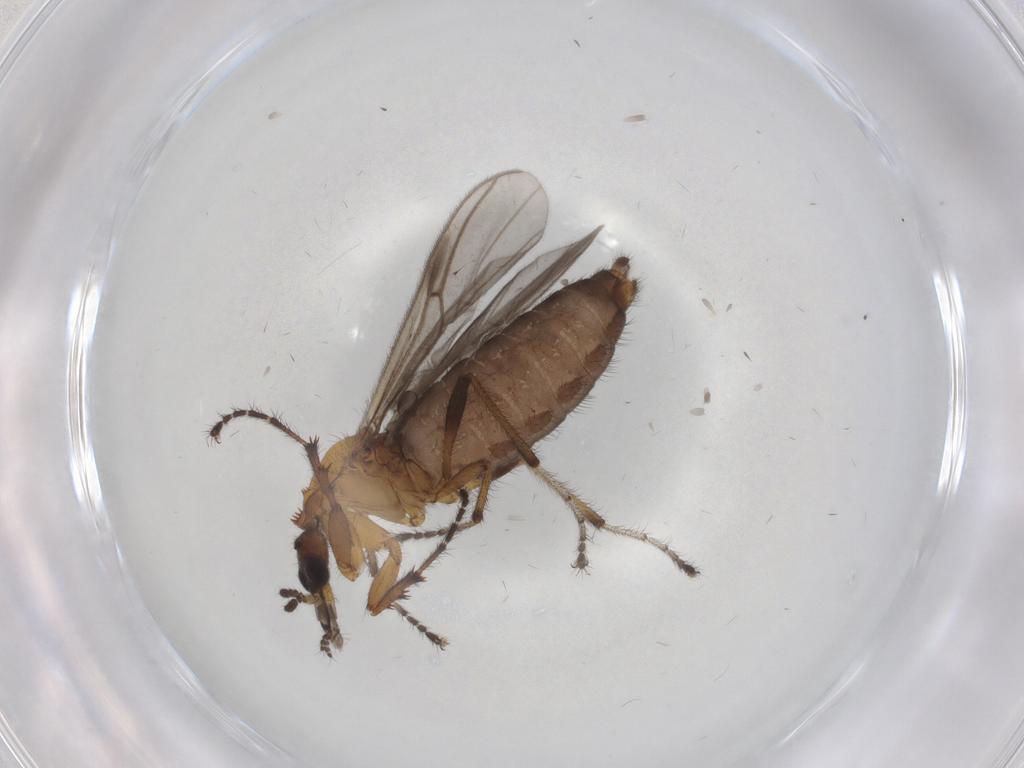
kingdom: Animalia
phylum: Arthropoda
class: Insecta
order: Diptera
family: Bibionidae
